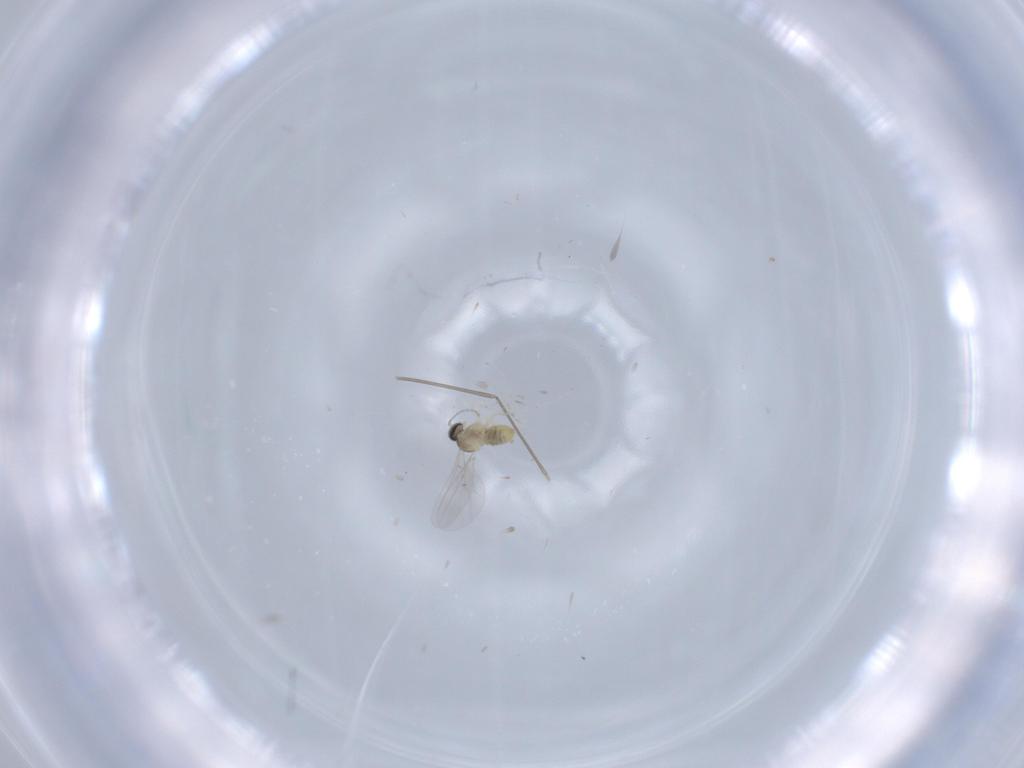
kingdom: Animalia
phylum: Arthropoda
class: Insecta
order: Diptera
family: Cecidomyiidae
